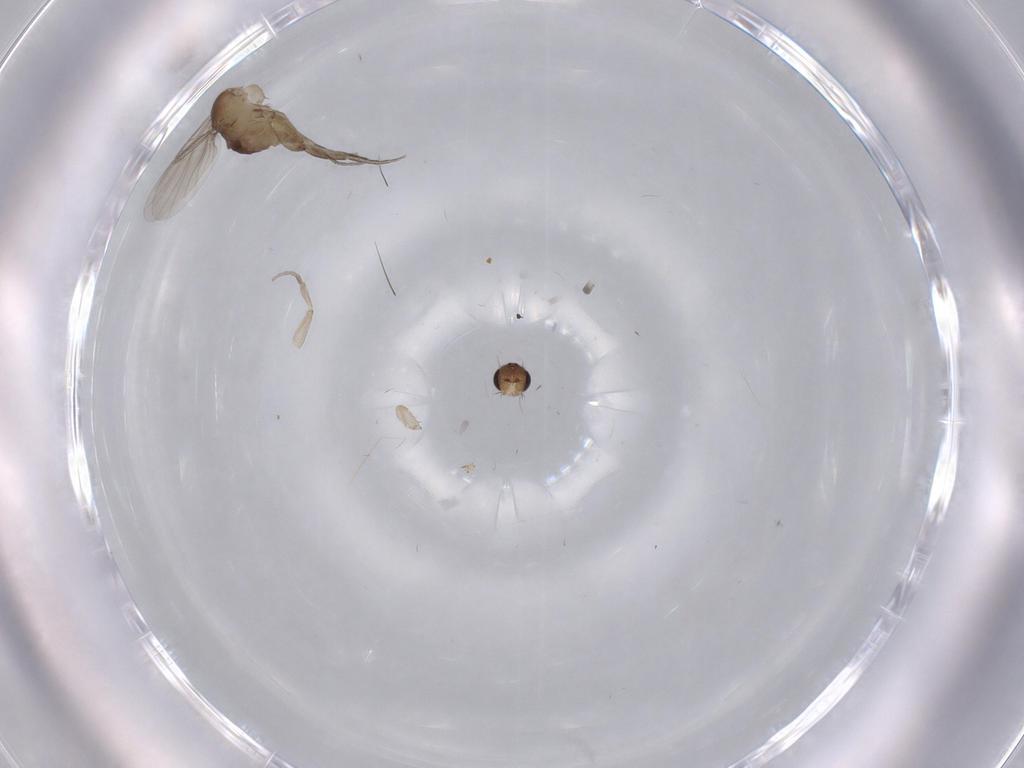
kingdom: Animalia
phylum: Arthropoda
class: Insecta
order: Diptera
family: Phoridae
